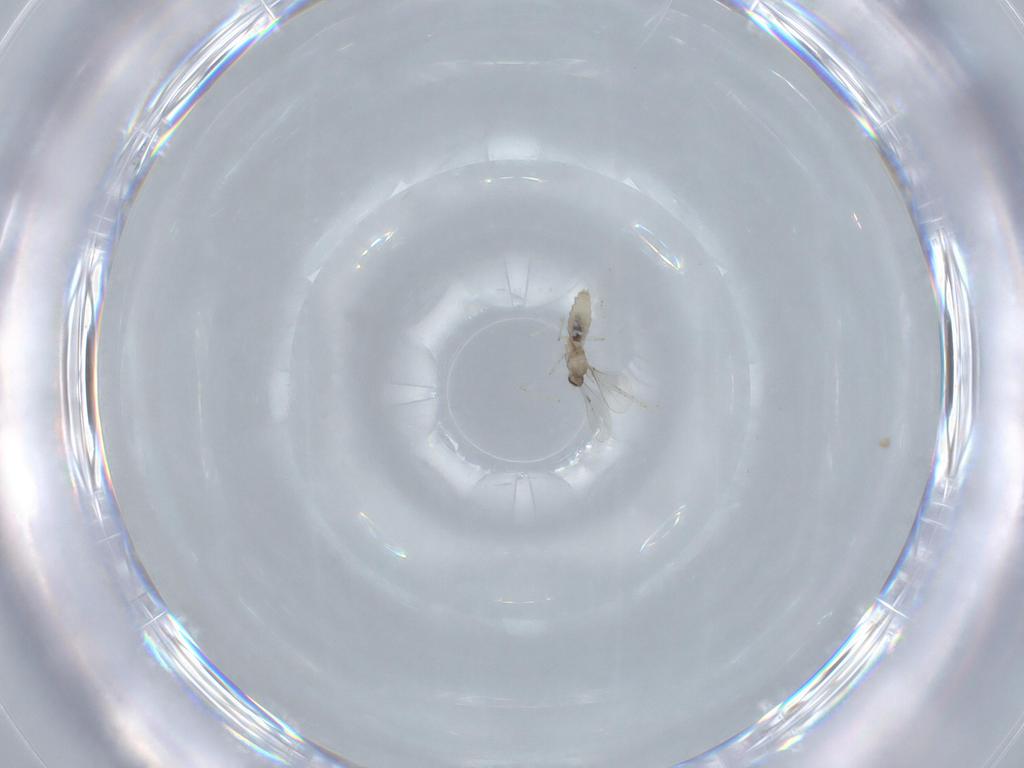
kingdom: Animalia
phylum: Arthropoda
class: Insecta
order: Diptera
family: Cecidomyiidae
